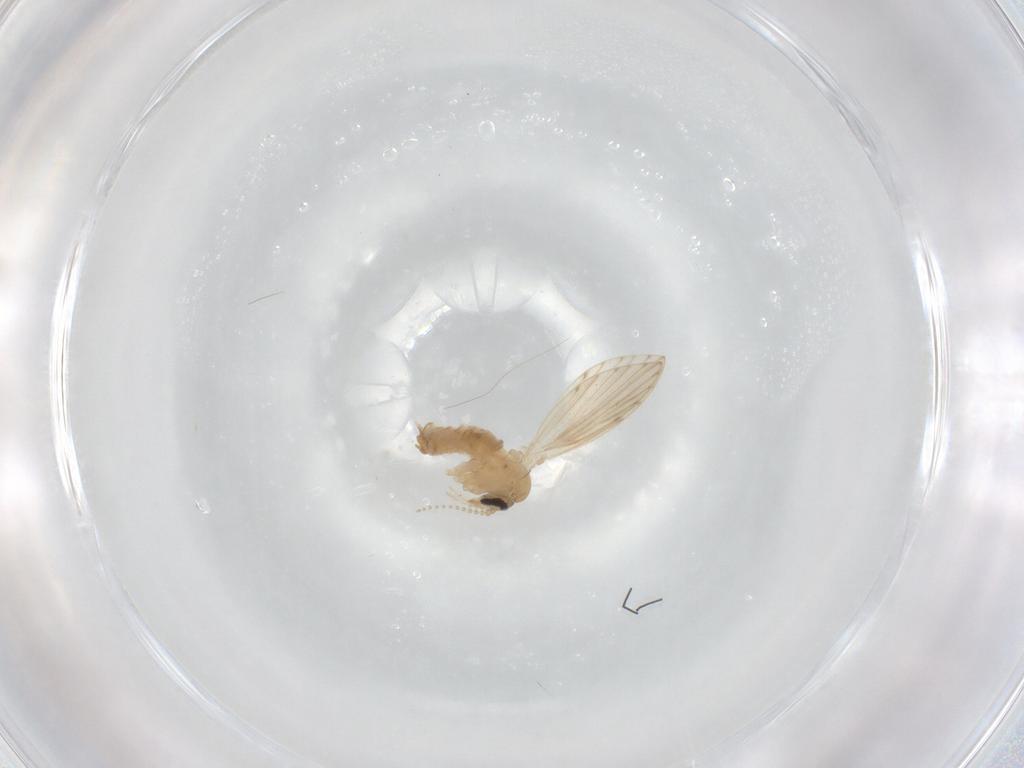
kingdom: Animalia
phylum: Arthropoda
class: Insecta
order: Diptera
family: Psychodidae
